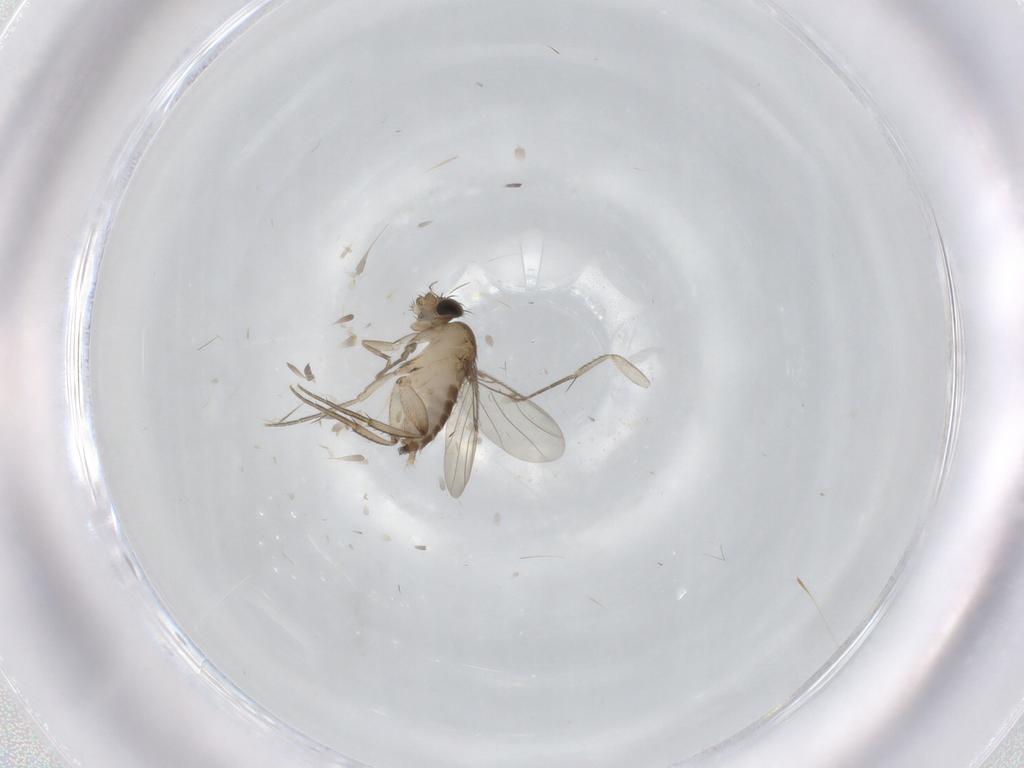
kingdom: Animalia
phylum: Arthropoda
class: Insecta
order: Diptera
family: Phoridae
